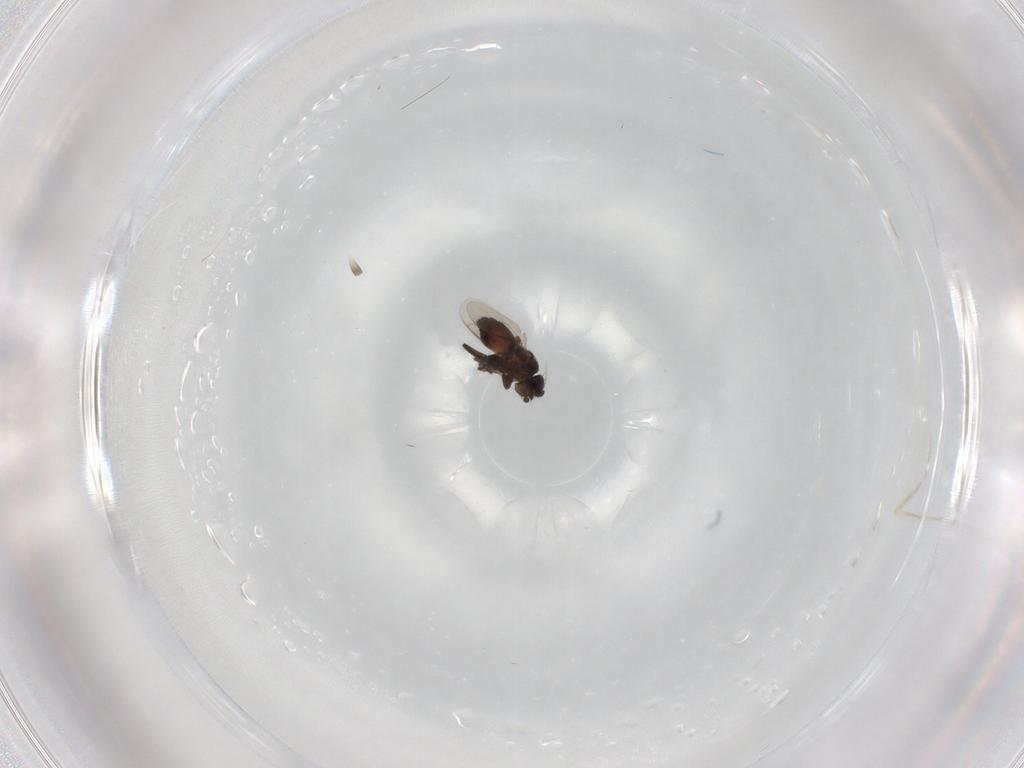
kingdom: Animalia
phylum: Arthropoda
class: Insecta
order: Diptera
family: Sphaeroceridae
